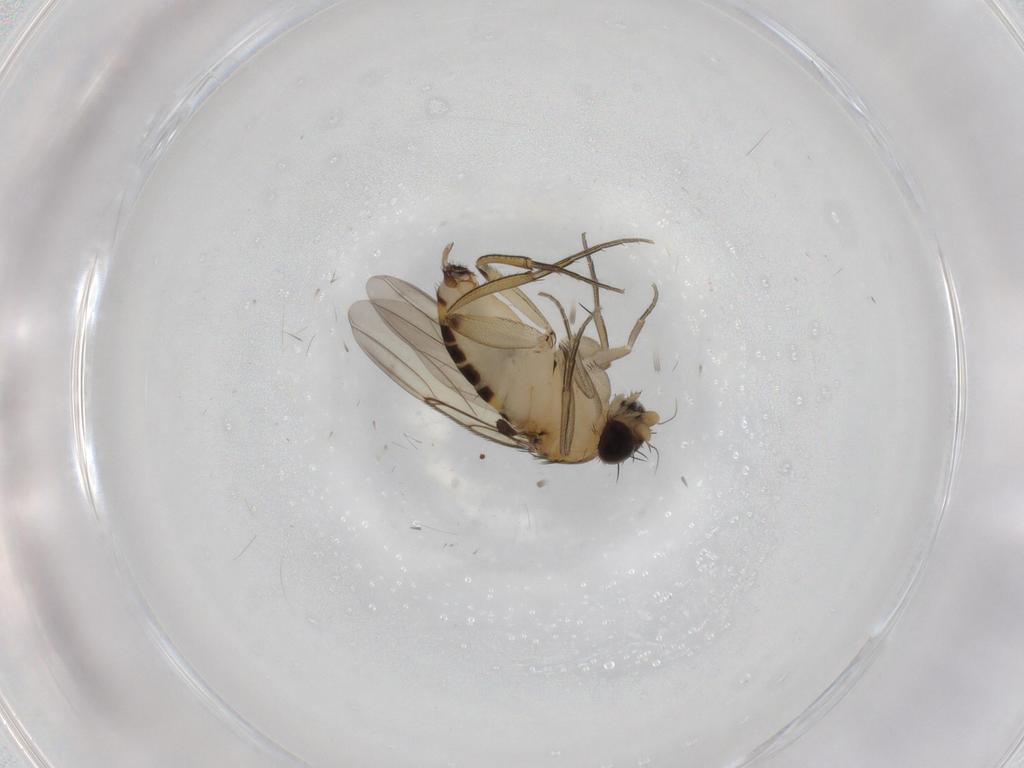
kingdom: Animalia
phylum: Arthropoda
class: Insecta
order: Diptera
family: Phoridae
